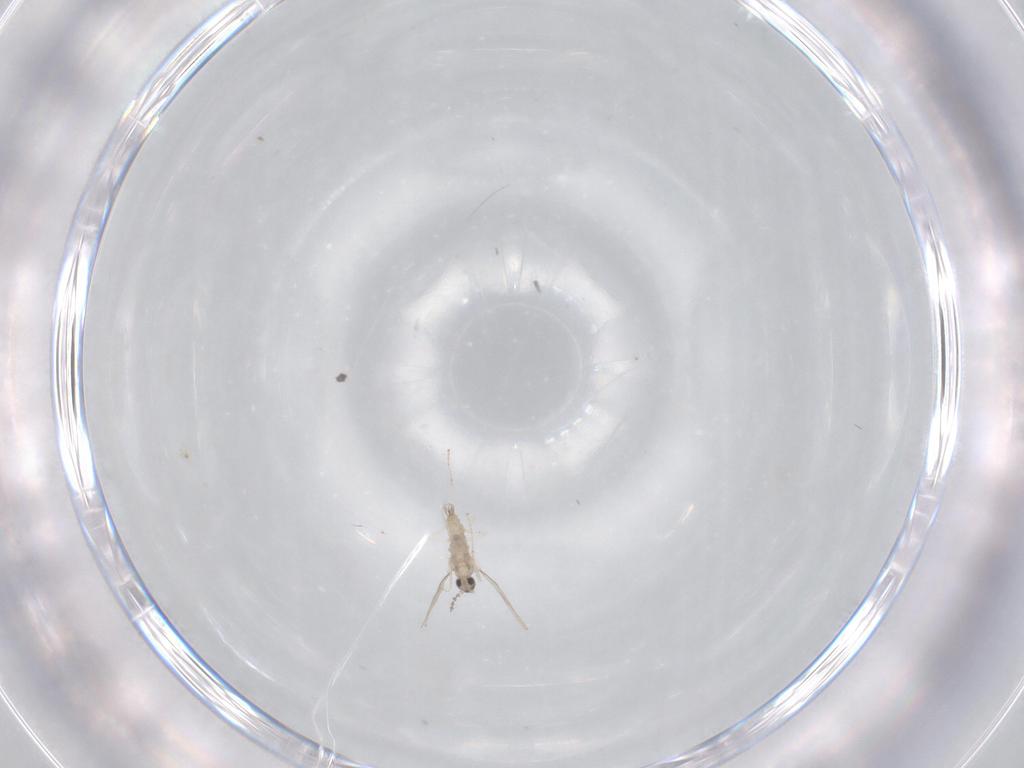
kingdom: Animalia
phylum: Arthropoda
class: Insecta
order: Diptera
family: Cecidomyiidae
